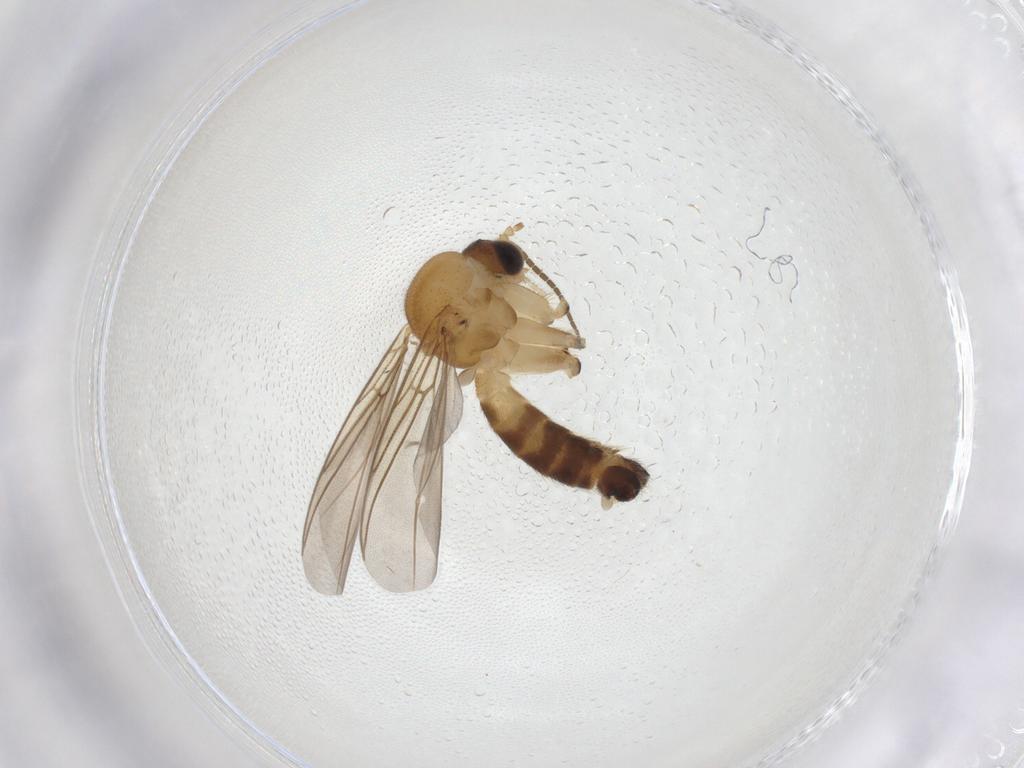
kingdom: Animalia
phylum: Arthropoda
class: Insecta
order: Diptera
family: Mycetophilidae
